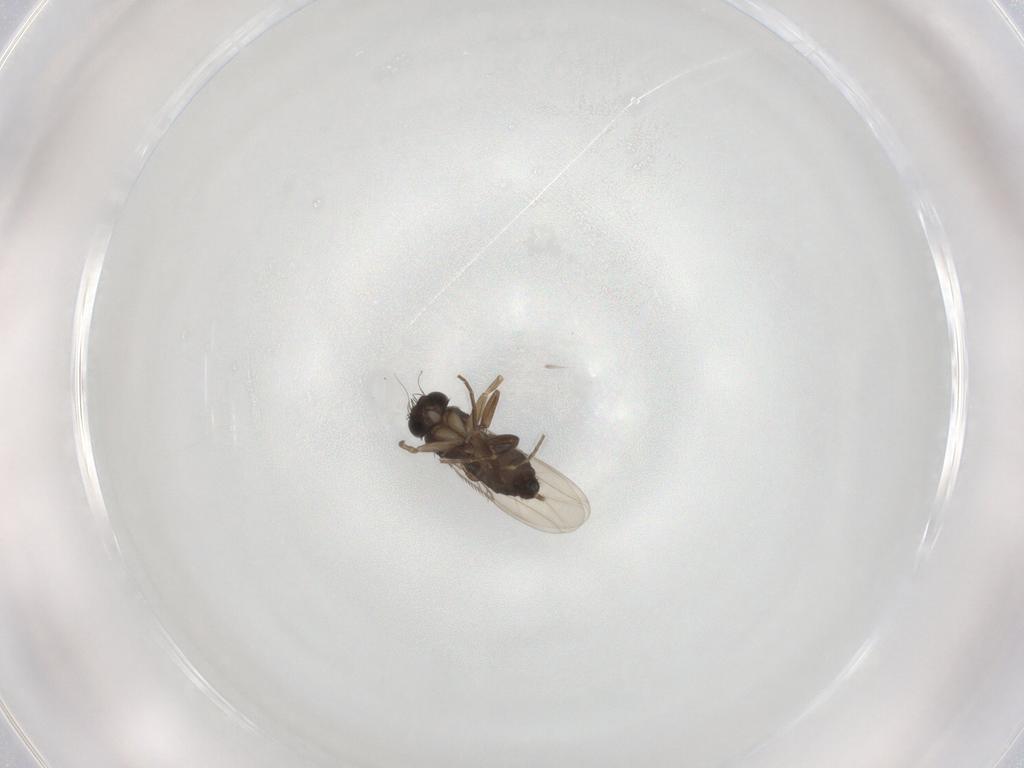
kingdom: Animalia
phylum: Arthropoda
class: Insecta
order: Diptera
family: Phoridae
